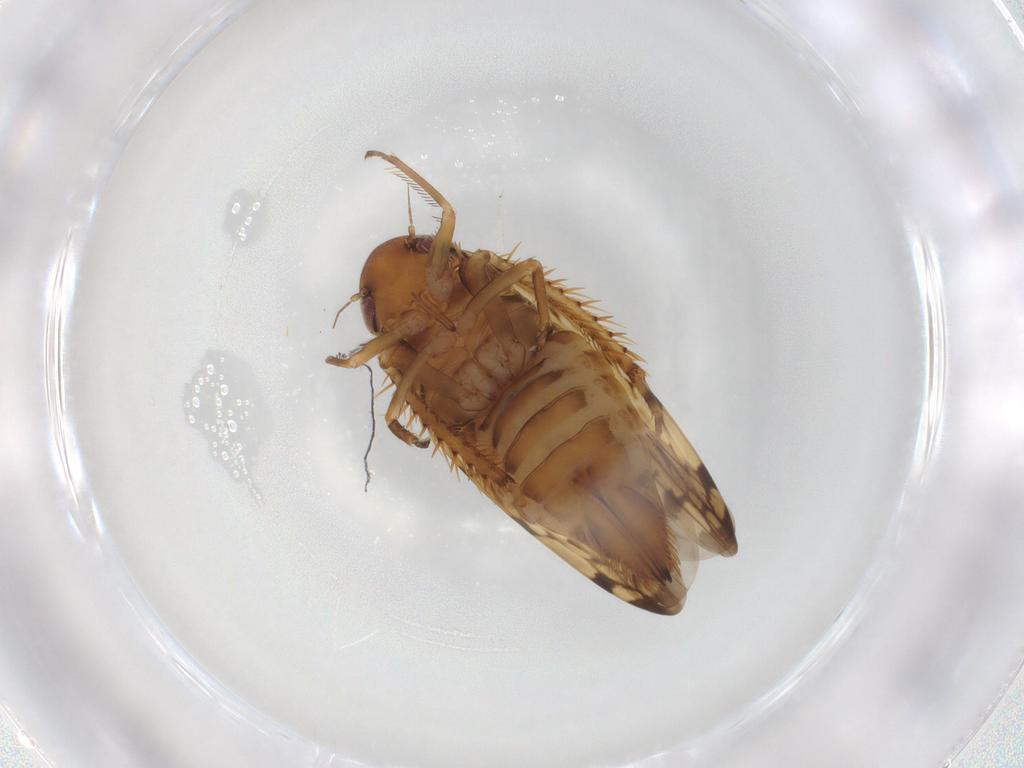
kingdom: Animalia
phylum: Arthropoda
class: Insecta
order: Hemiptera
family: Cicadellidae
